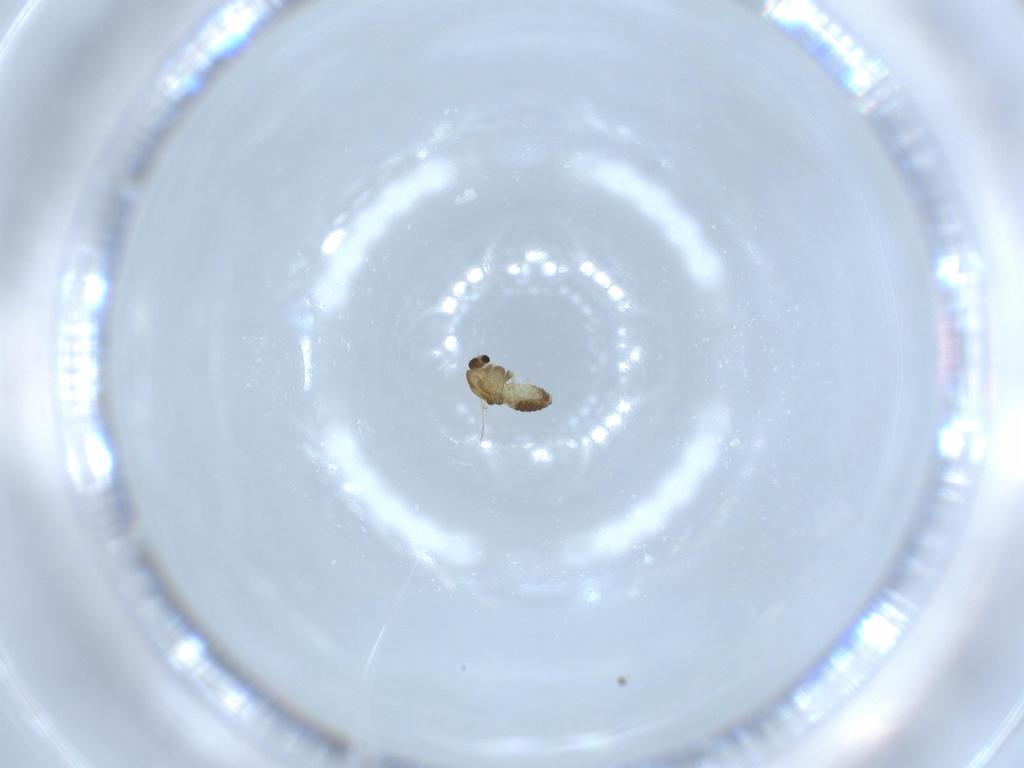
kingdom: Animalia
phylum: Arthropoda
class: Insecta
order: Diptera
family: Chironomidae
